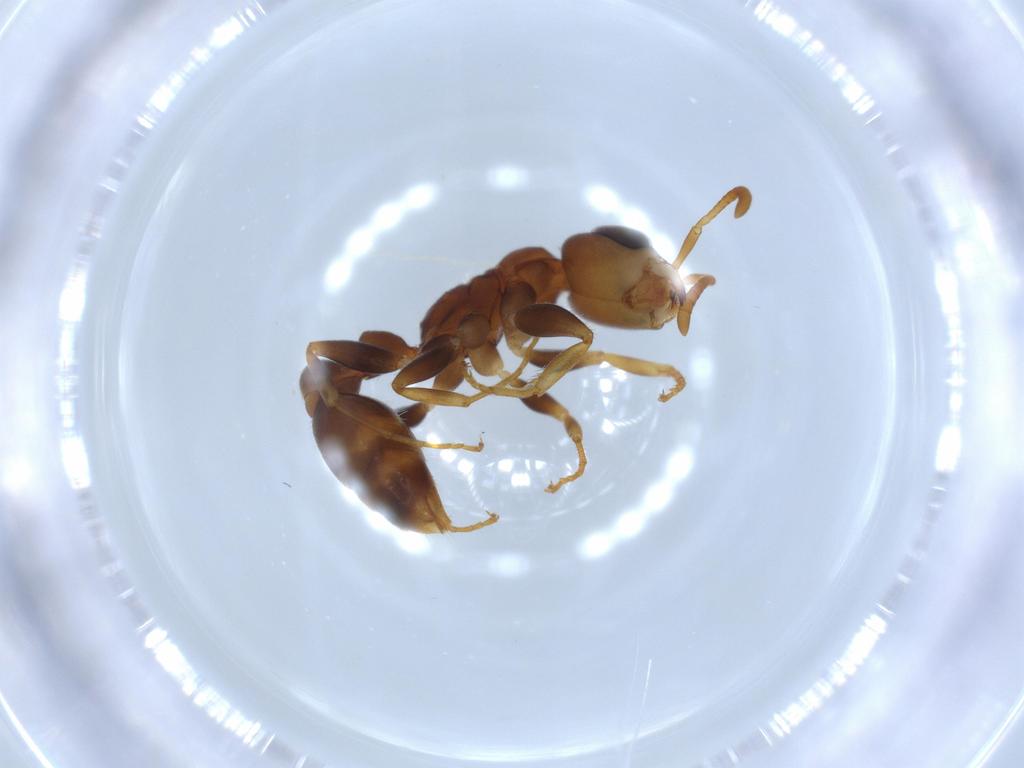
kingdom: Animalia
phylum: Arthropoda
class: Insecta
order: Hymenoptera
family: Formicidae
